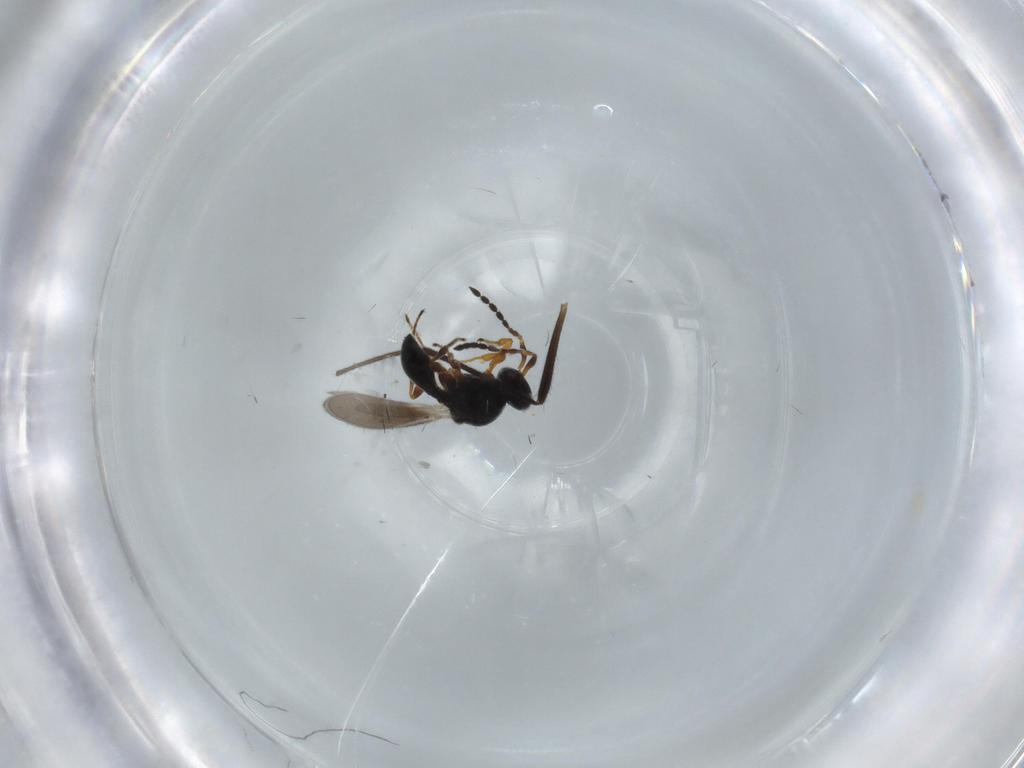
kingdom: Animalia
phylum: Arthropoda
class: Insecta
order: Hymenoptera
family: Platygastridae
